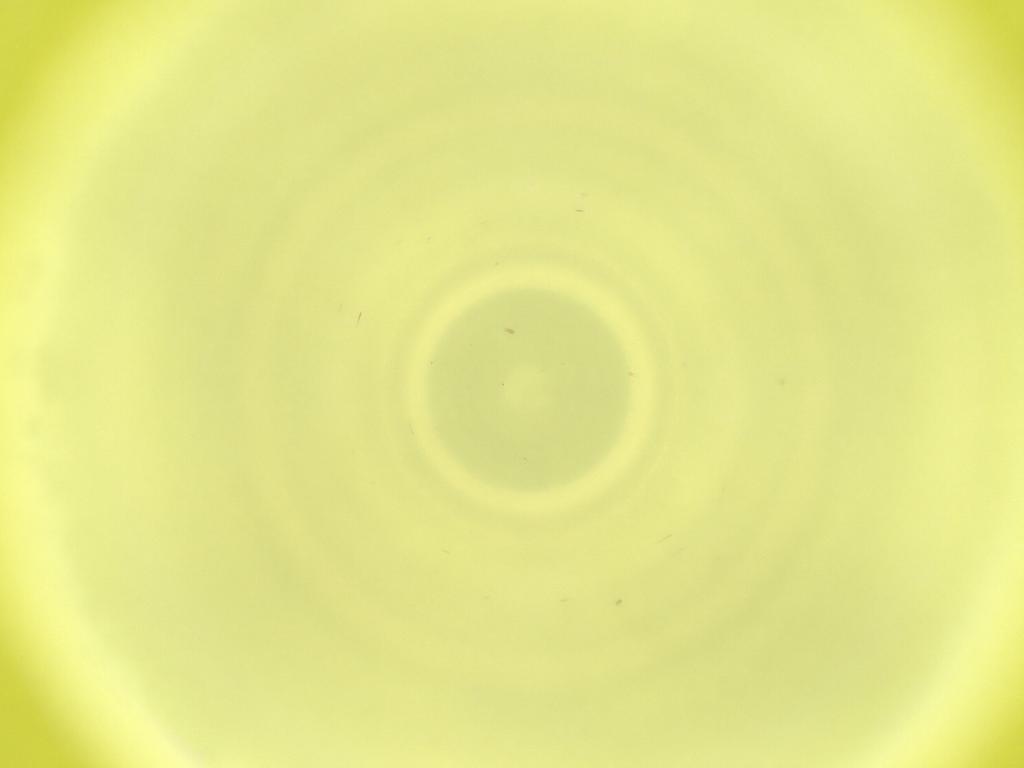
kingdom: Animalia
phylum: Arthropoda
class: Insecta
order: Diptera
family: Cecidomyiidae
